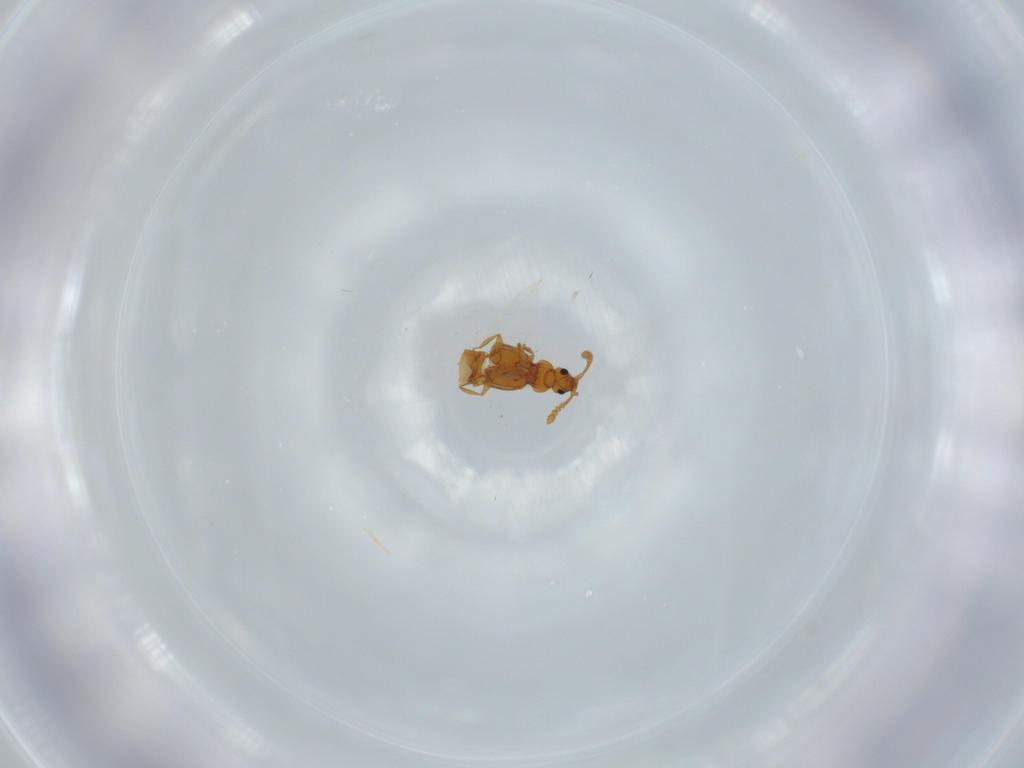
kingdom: Animalia
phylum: Arthropoda
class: Insecta
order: Coleoptera
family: Staphylinidae
